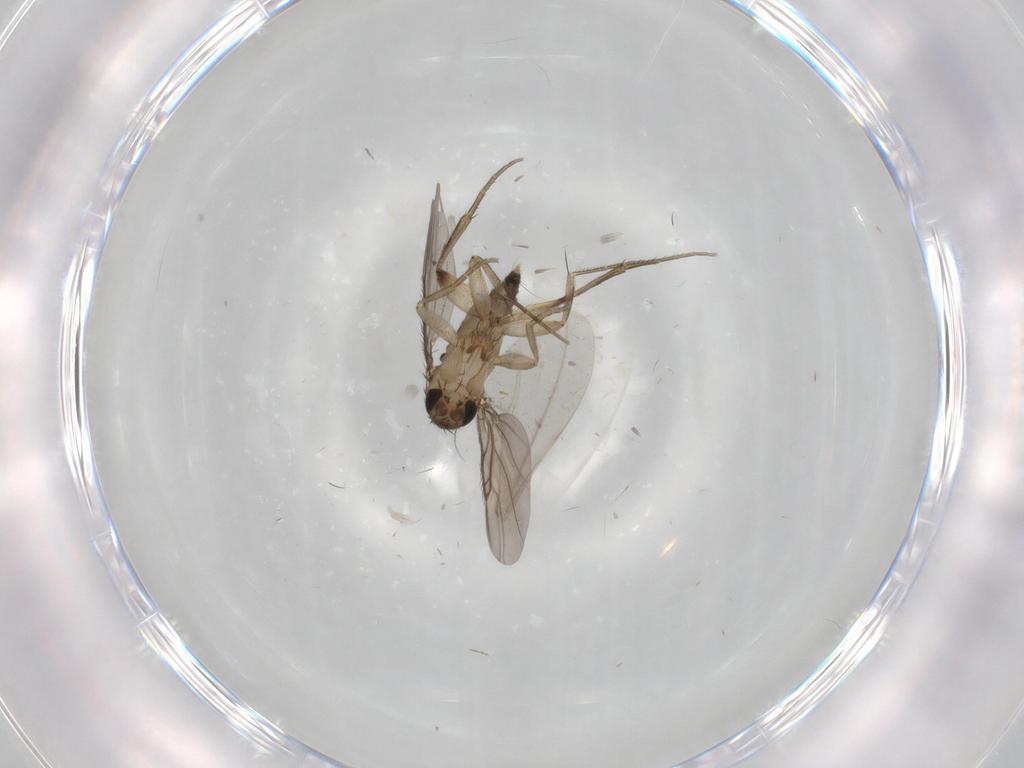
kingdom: Animalia
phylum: Arthropoda
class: Insecta
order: Diptera
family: Phoridae
